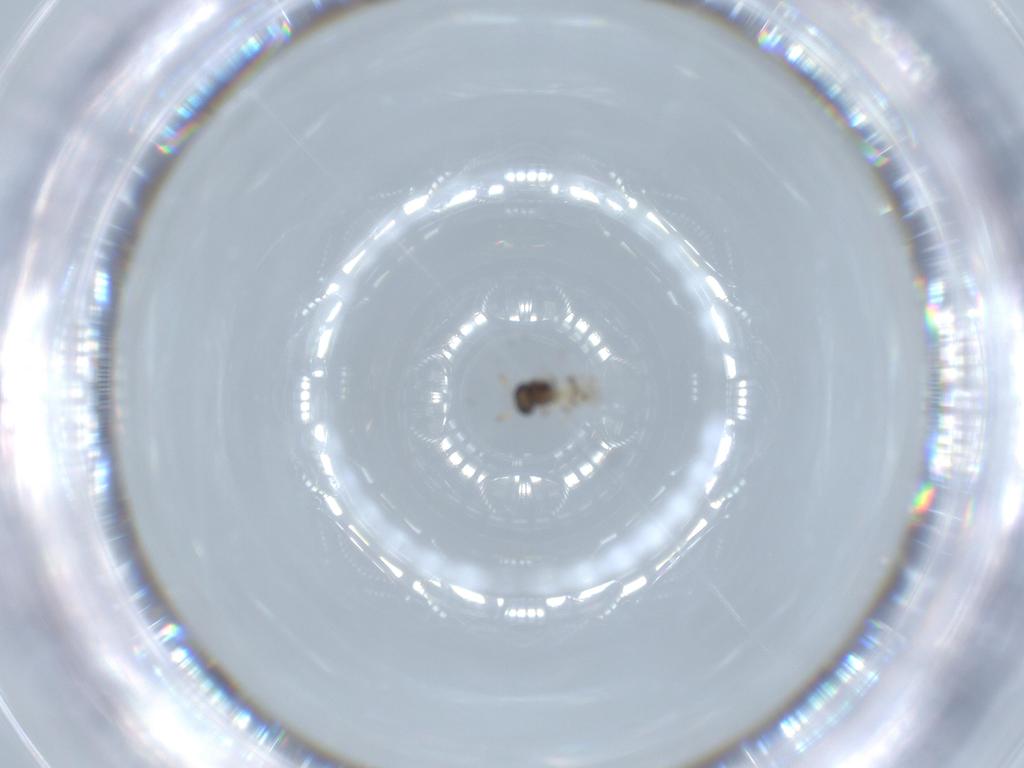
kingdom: Animalia
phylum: Arthropoda
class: Insecta
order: Hymenoptera
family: Scelionidae
